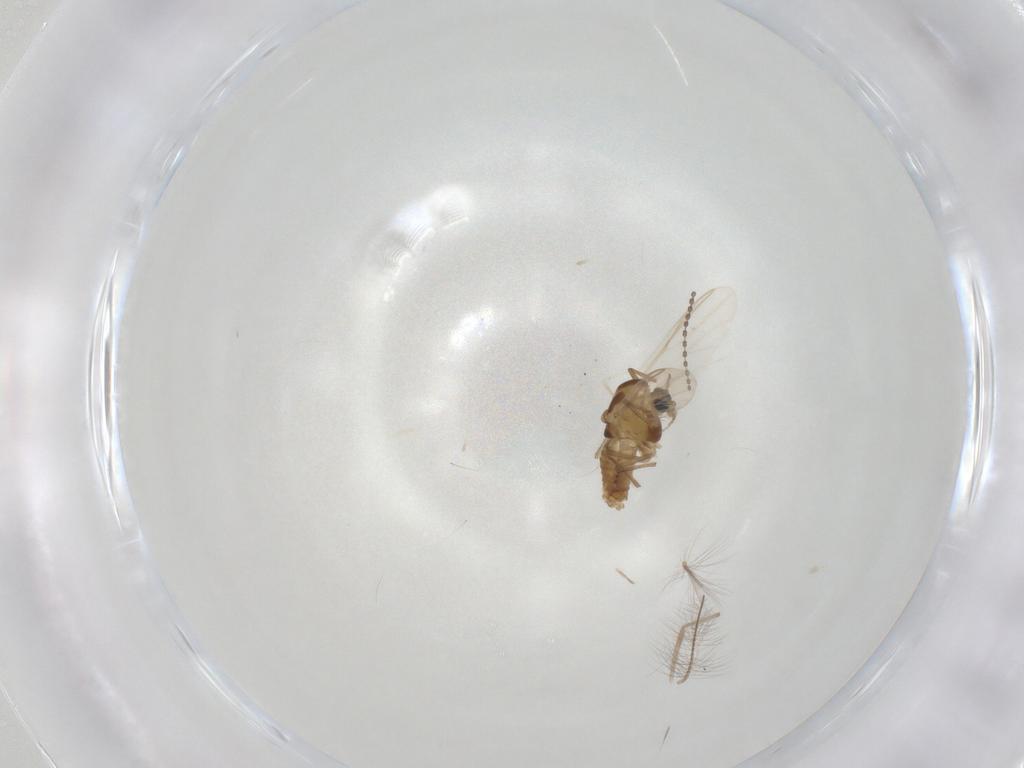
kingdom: Animalia
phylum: Arthropoda
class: Insecta
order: Diptera
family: Chironomidae
